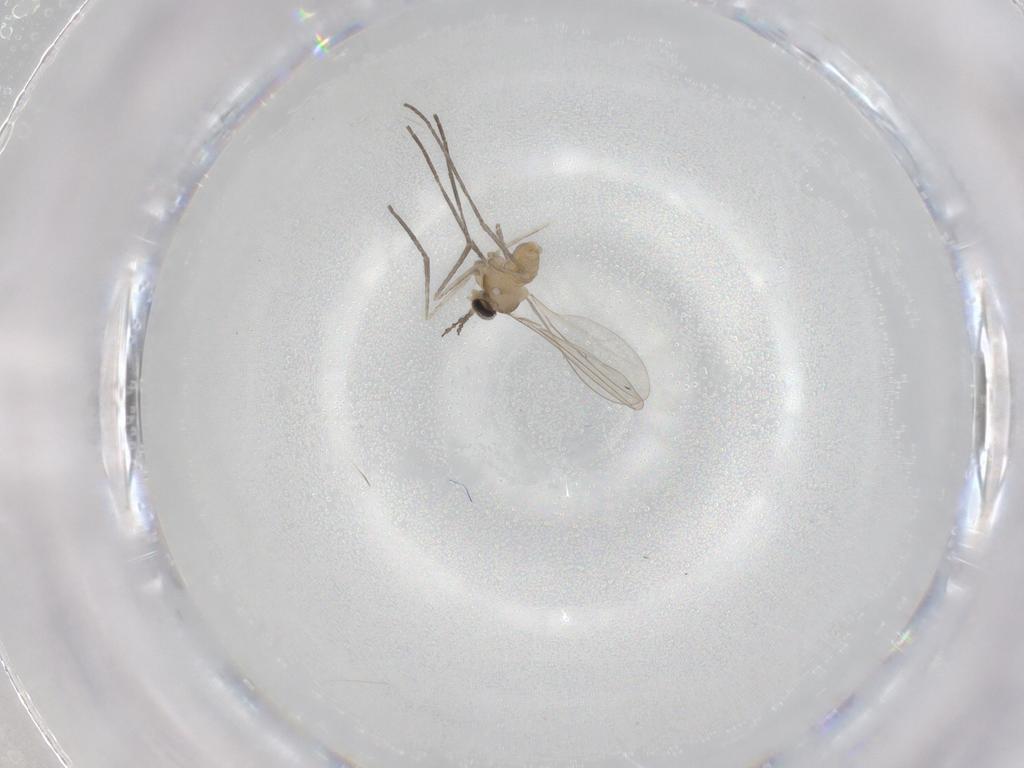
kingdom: Animalia
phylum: Arthropoda
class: Insecta
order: Diptera
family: Cecidomyiidae
